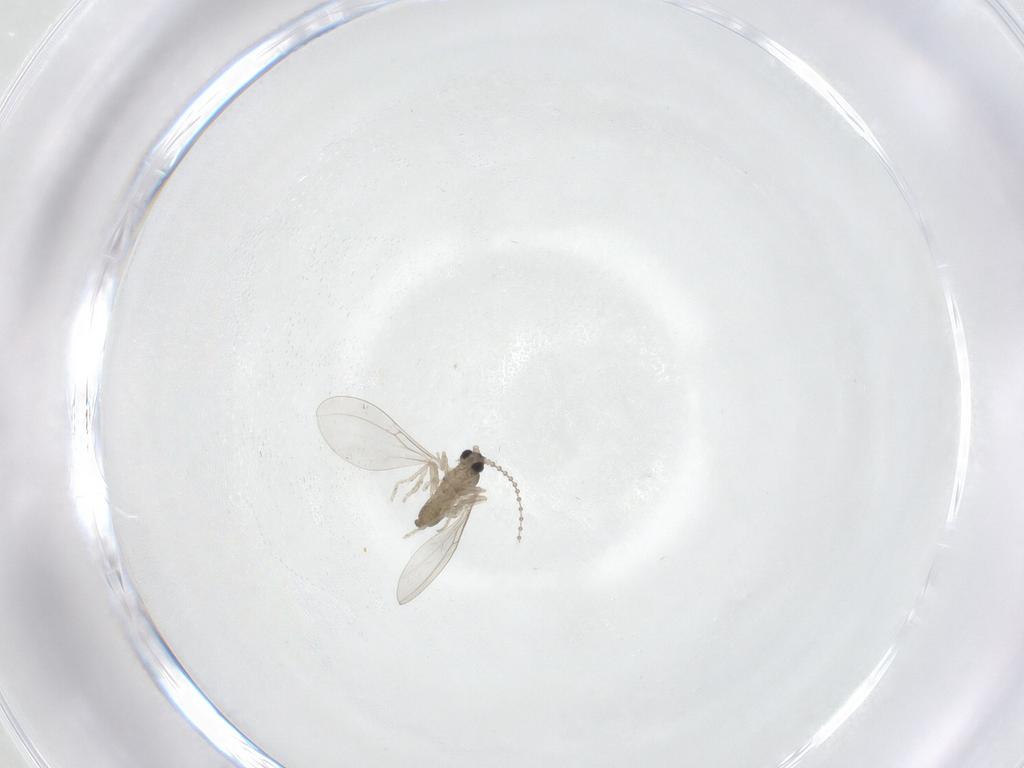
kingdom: Animalia
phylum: Arthropoda
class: Insecta
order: Diptera
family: Cecidomyiidae
